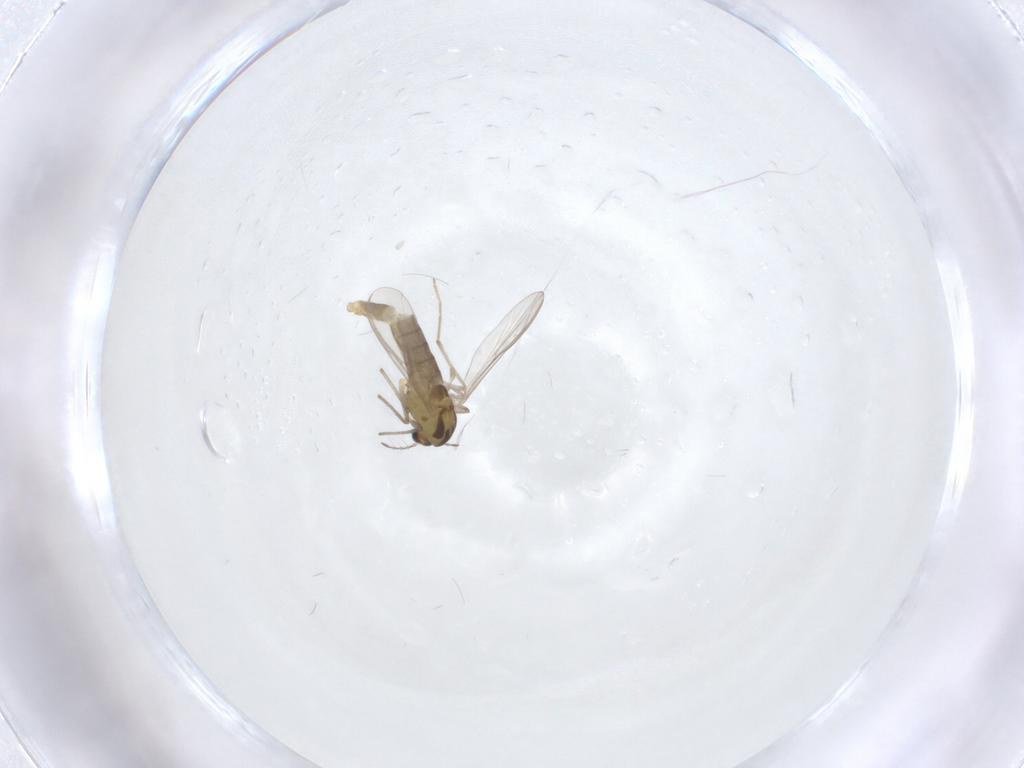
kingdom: Animalia
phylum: Arthropoda
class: Insecta
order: Diptera
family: Chironomidae
